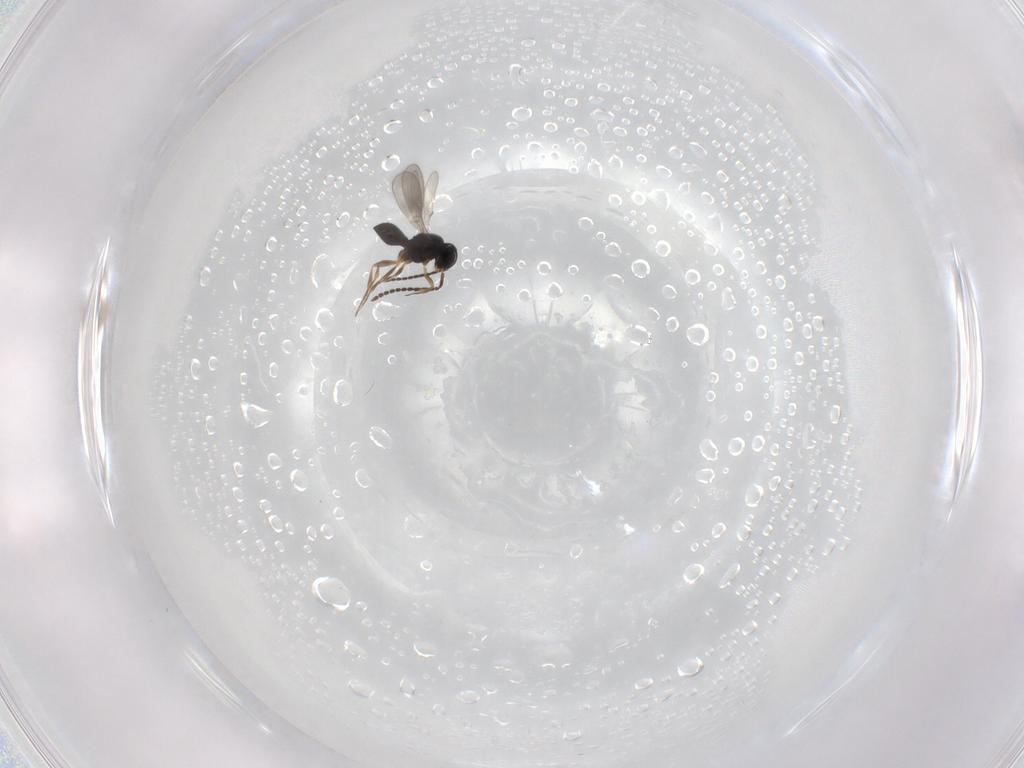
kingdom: Animalia
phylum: Arthropoda
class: Insecta
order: Hymenoptera
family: Scelionidae
